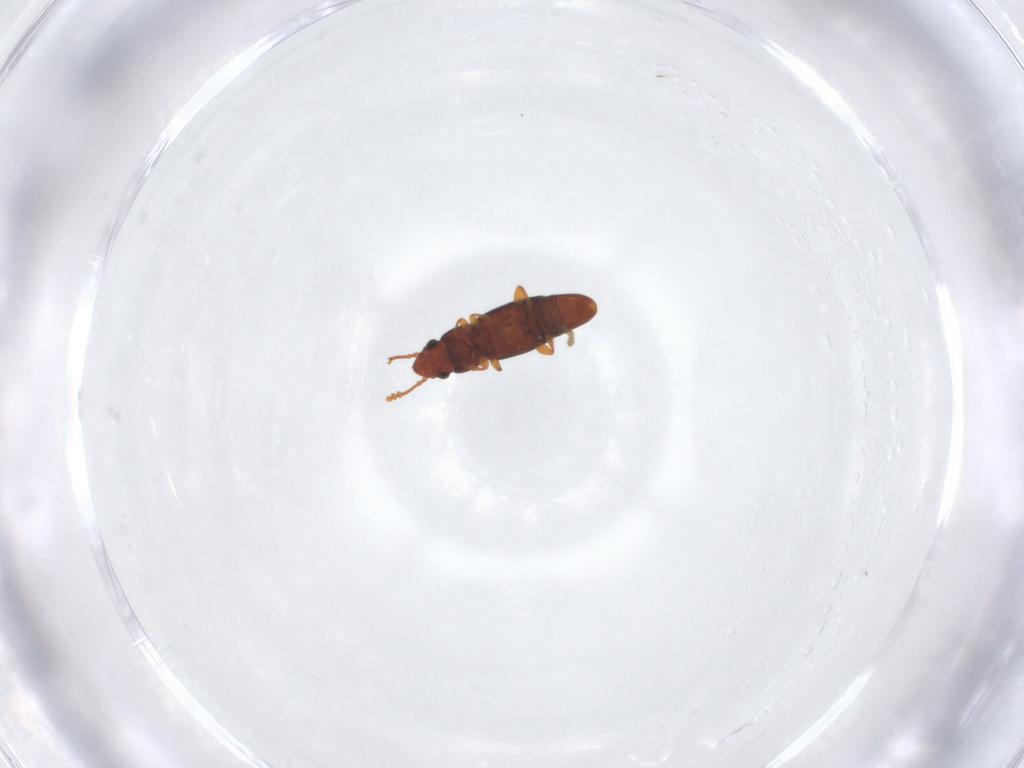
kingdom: Animalia
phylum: Arthropoda
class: Insecta
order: Coleoptera
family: Smicripidae
